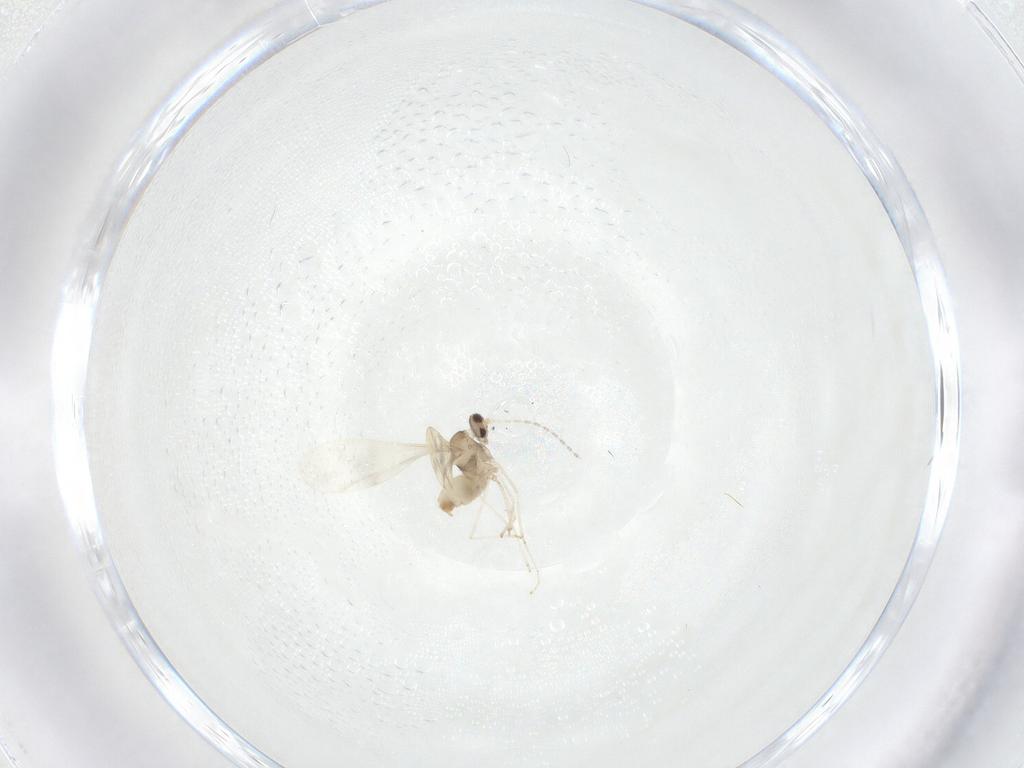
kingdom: Animalia
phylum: Arthropoda
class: Insecta
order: Diptera
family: Cecidomyiidae
